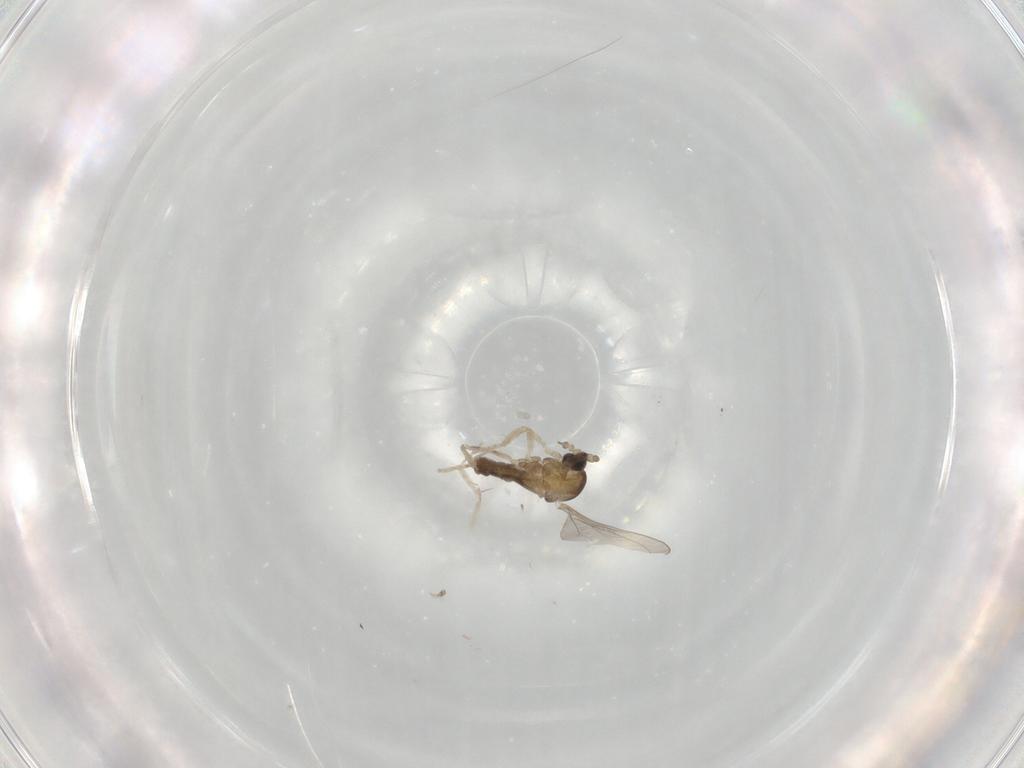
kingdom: Animalia
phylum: Arthropoda
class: Insecta
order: Diptera
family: Cecidomyiidae
